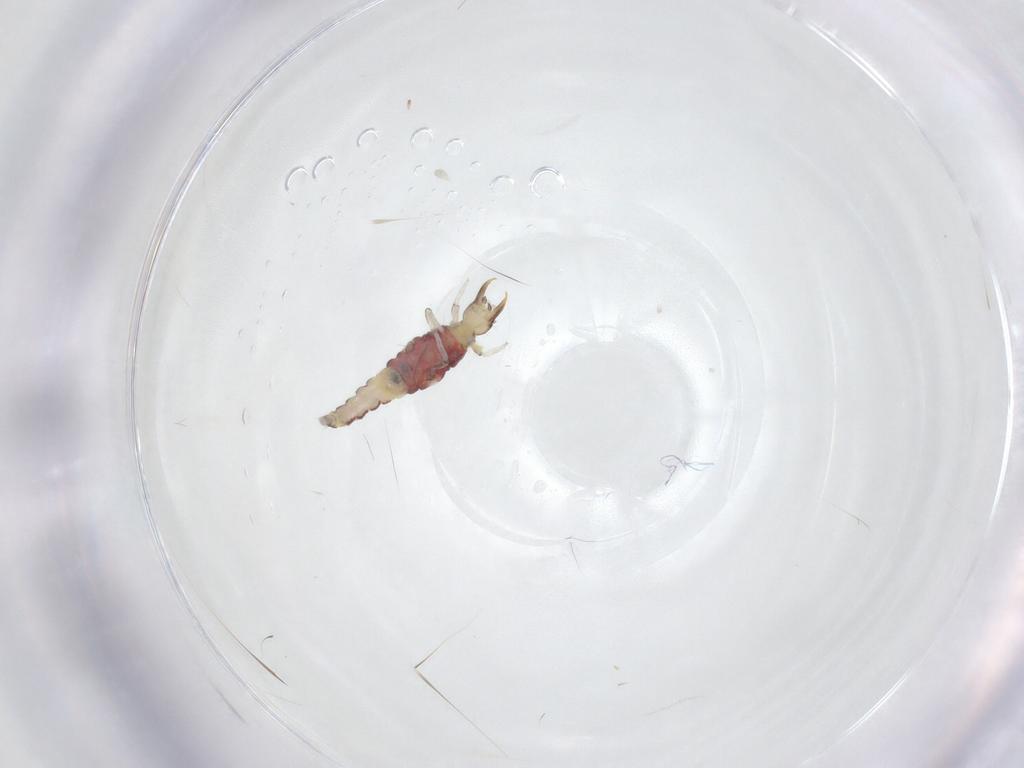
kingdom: Animalia
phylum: Arthropoda
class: Insecta
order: Neuroptera
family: Hemerobiidae
